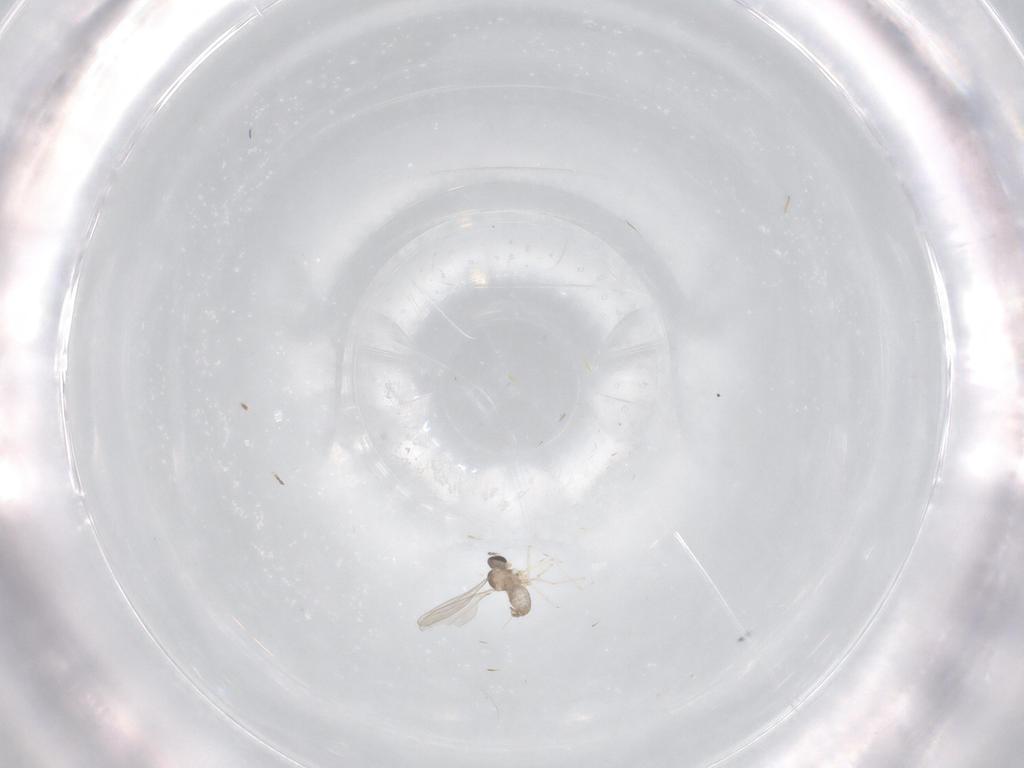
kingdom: Animalia
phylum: Arthropoda
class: Insecta
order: Diptera
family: Cecidomyiidae
